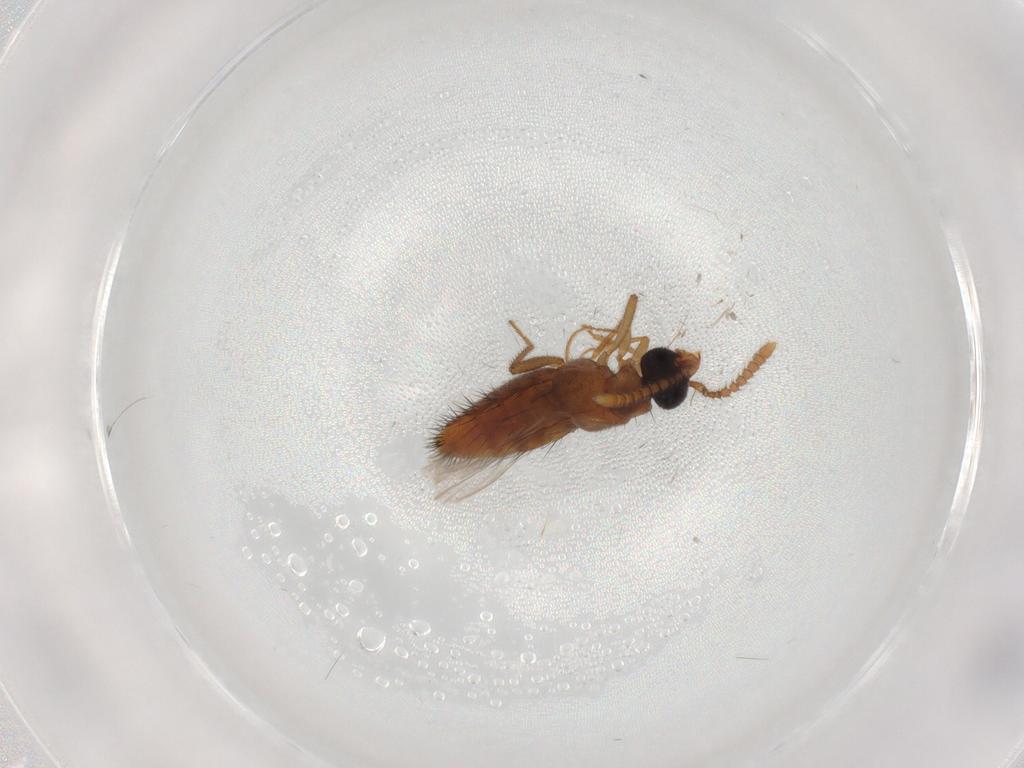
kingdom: Animalia
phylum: Arthropoda
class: Insecta
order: Coleoptera
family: Staphylinidae
